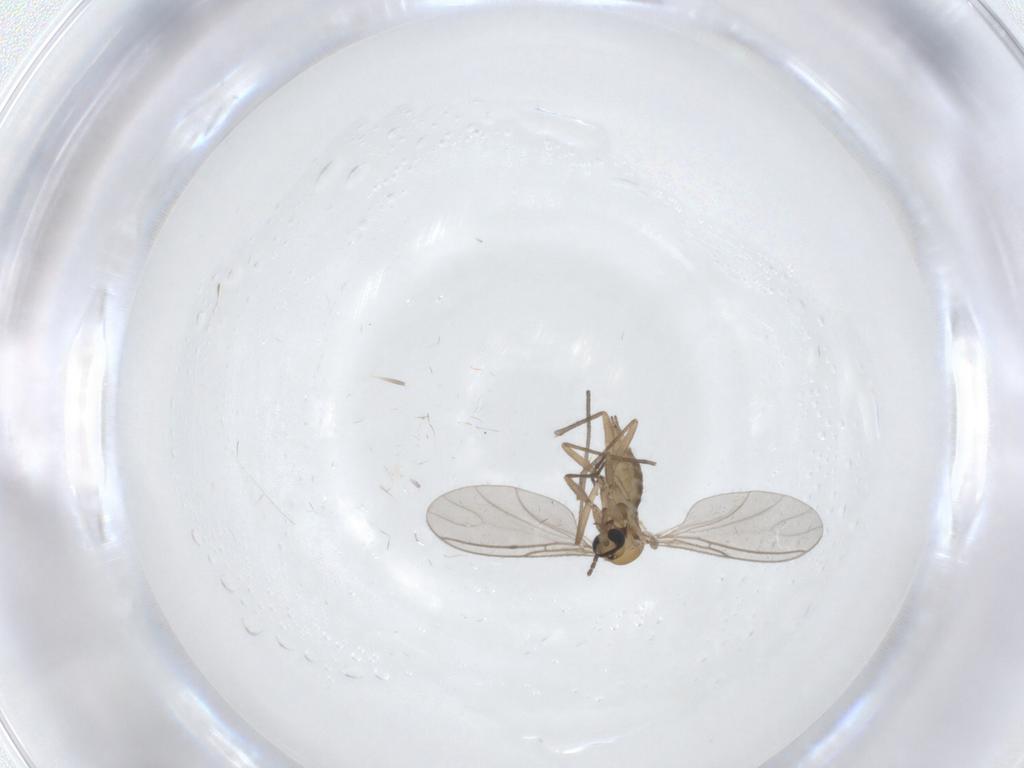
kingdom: Animalia
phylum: Arthropoda
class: Insecta
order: Diptera
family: Sciaridae
